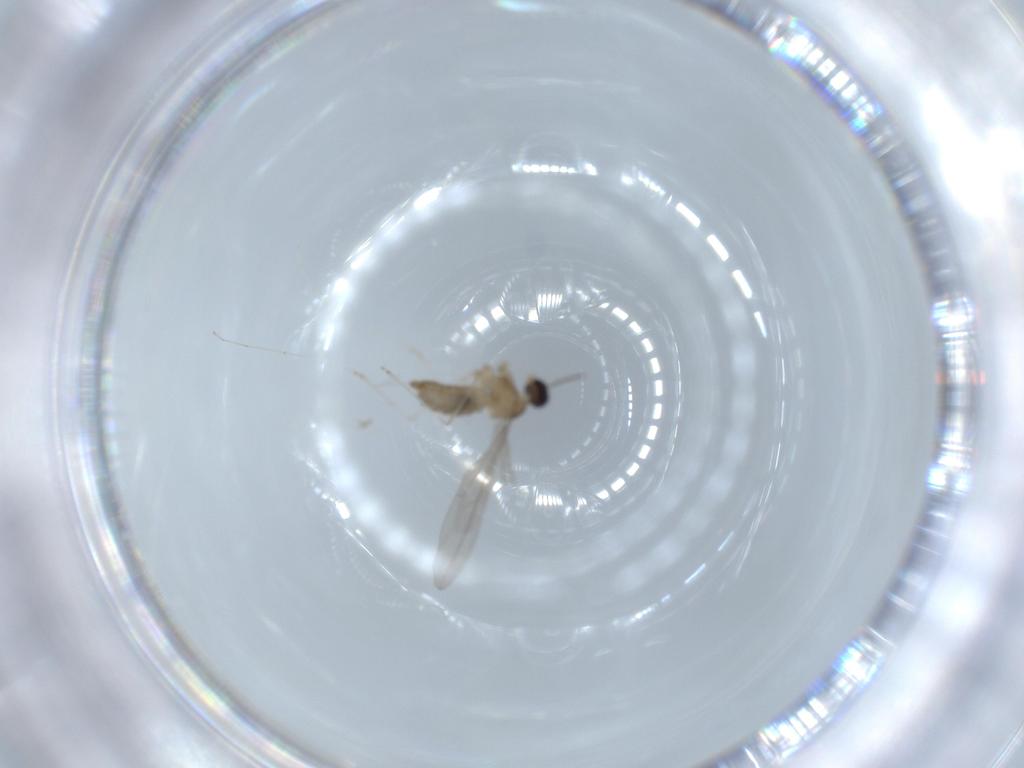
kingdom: Animalia
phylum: Arthropoda
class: Insecta
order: Diptera
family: Cecidomyiidae
